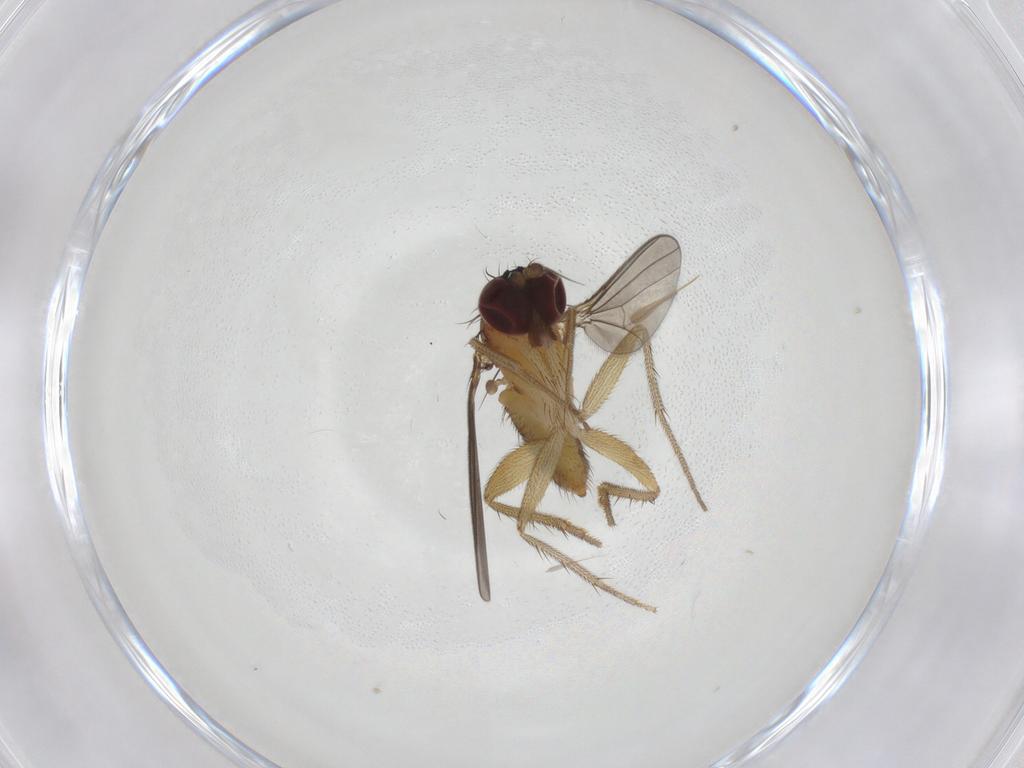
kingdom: Animalia
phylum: Arthropoda
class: Insecta
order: Diptera
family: Dolichopodidae
